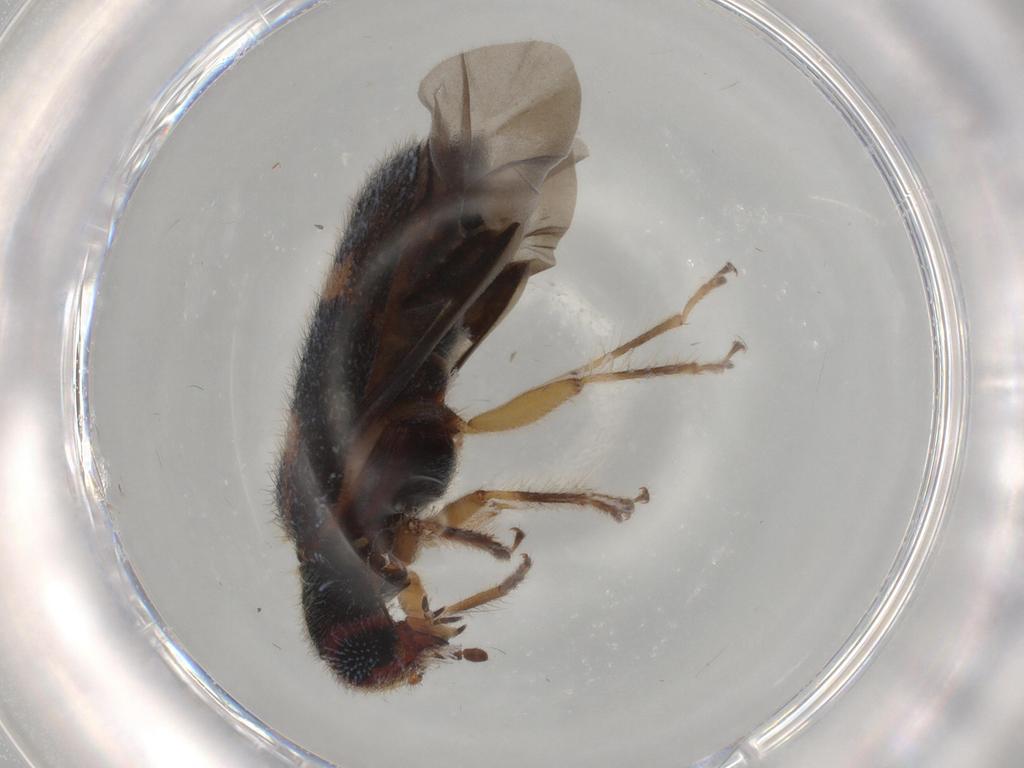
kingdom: Animalia
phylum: Arthropoda
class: Insecta
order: Coleoptera
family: Cleridae
